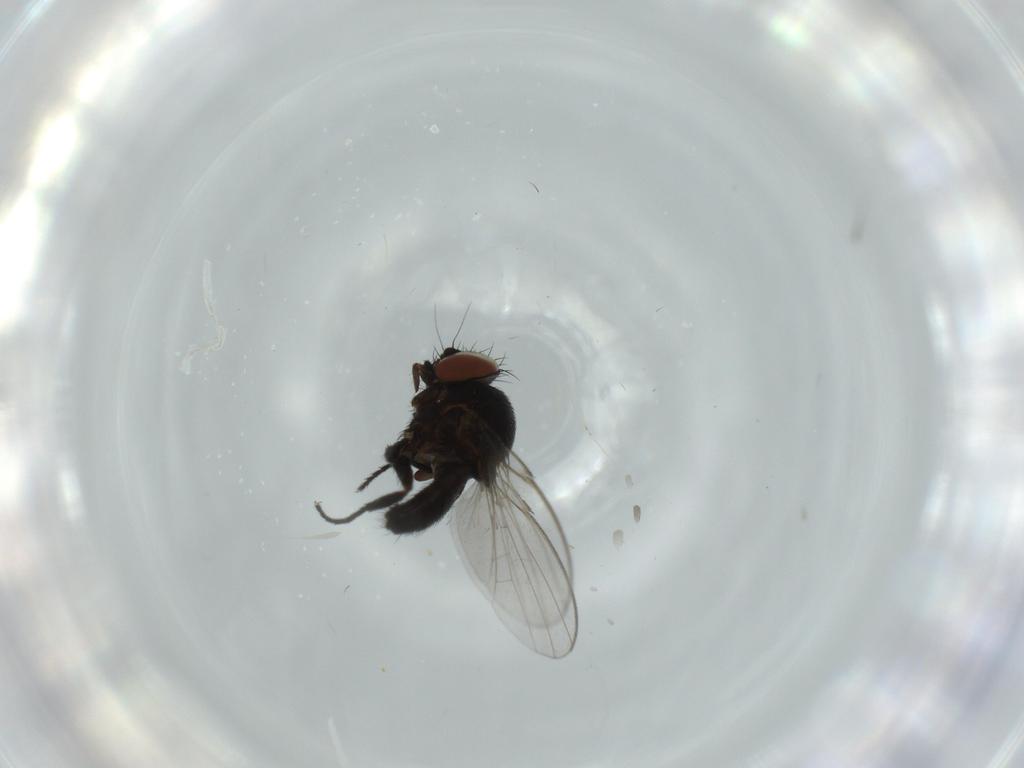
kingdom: Animalia
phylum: Arthropoda
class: Insecta
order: Diptera
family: Milichiidae
